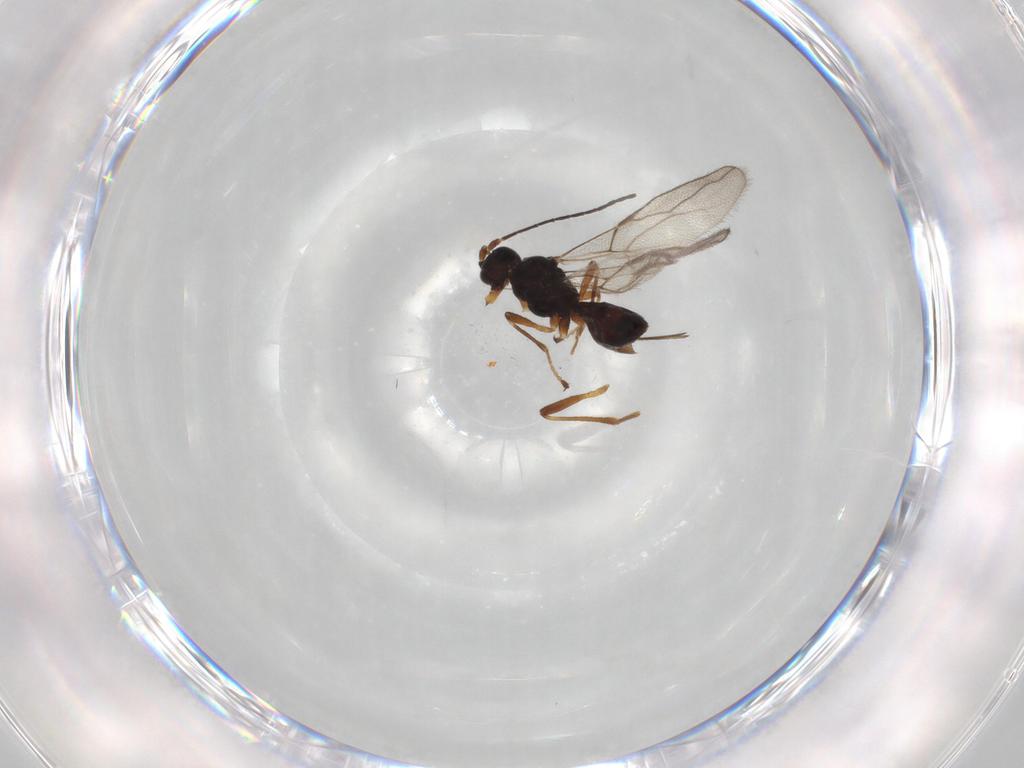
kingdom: Animalia
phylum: Arthropoda
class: Insecta
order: Hymenoptera
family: Braconidae
